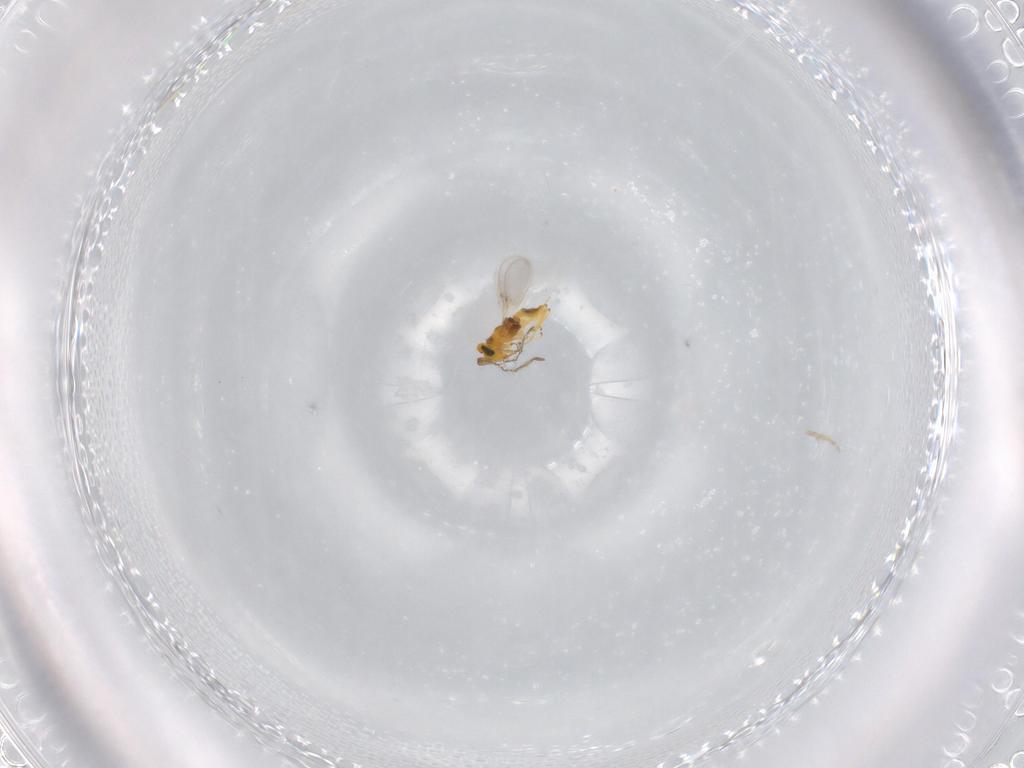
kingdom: Animalia
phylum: Arthropoda
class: Insecta
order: Hymenoptera
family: Encyrtidae
